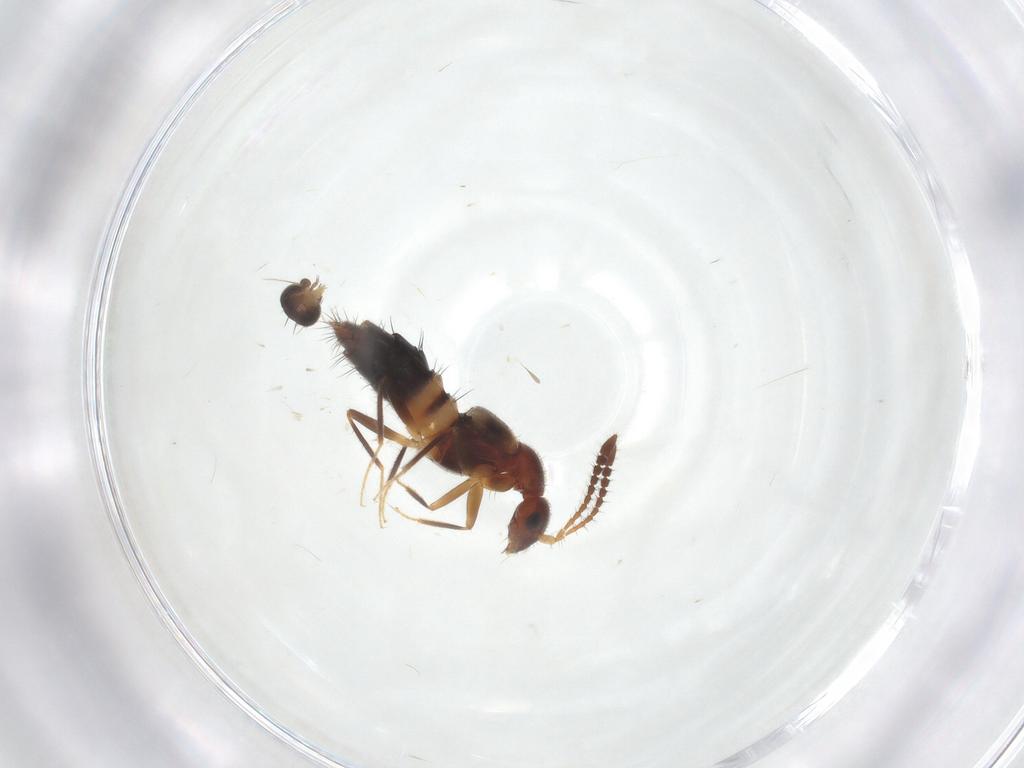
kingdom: Animalia
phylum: Arthropoda
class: Insecta
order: Coleoptera
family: Staphylinidae
